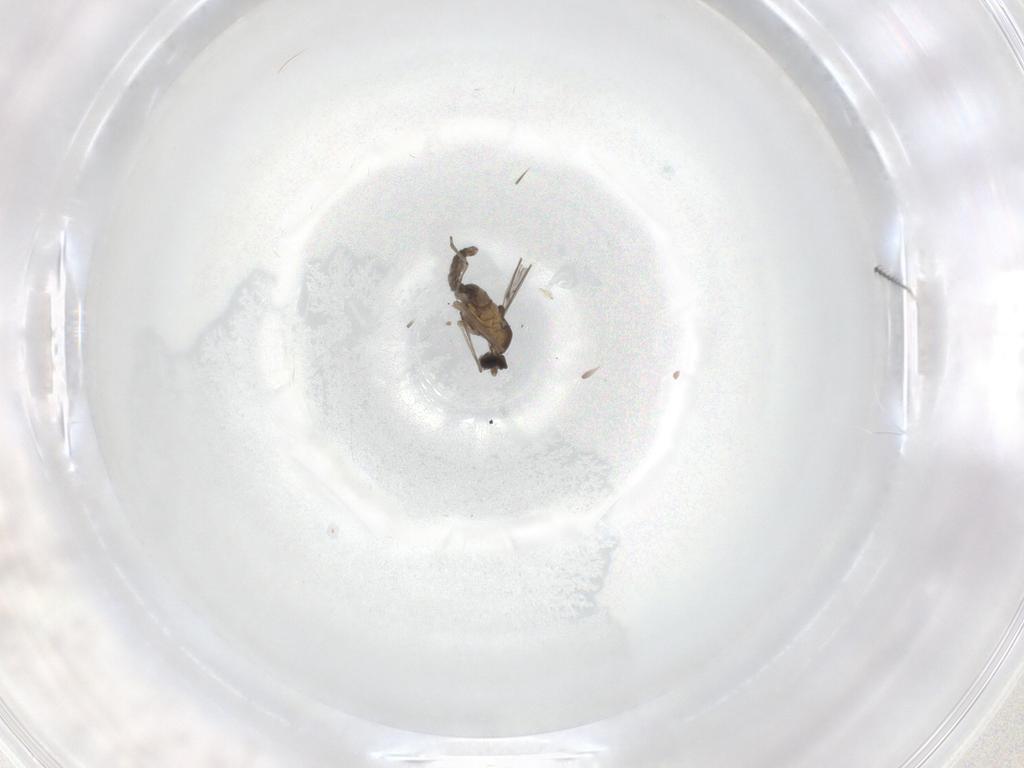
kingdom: Animalia
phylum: Arthropoda
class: Insecta
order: Diptera
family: Cecidomyiidae
